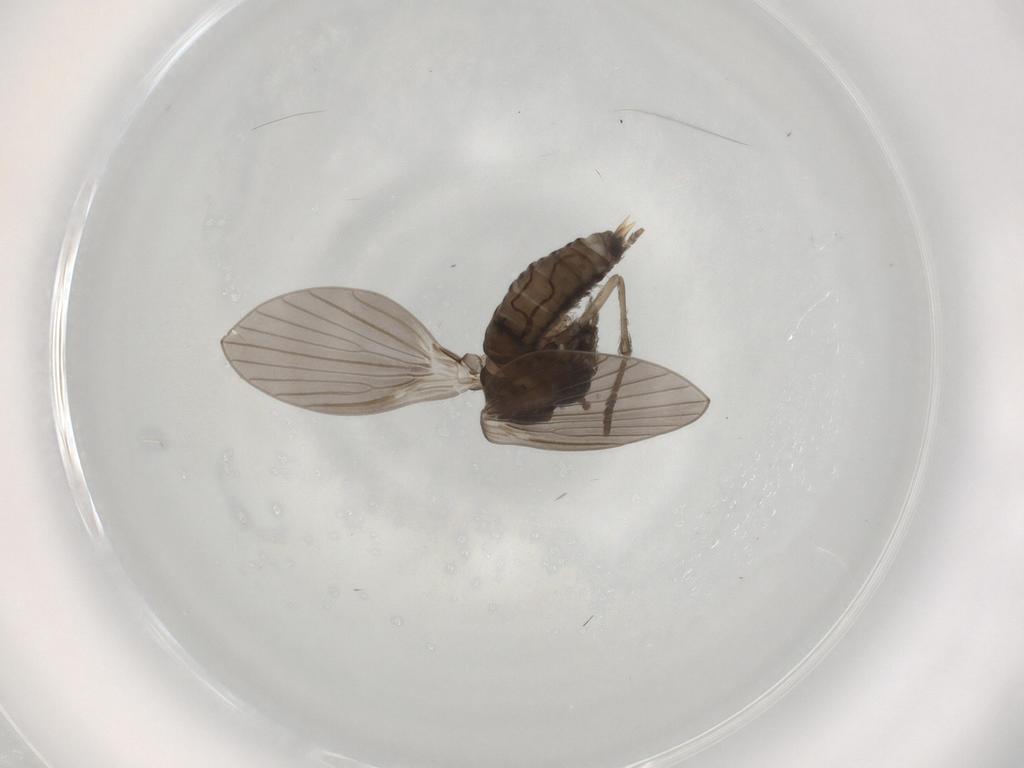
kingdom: Animalia
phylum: Arthropoda
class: Insecta
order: Diptera
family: Psychodidae
